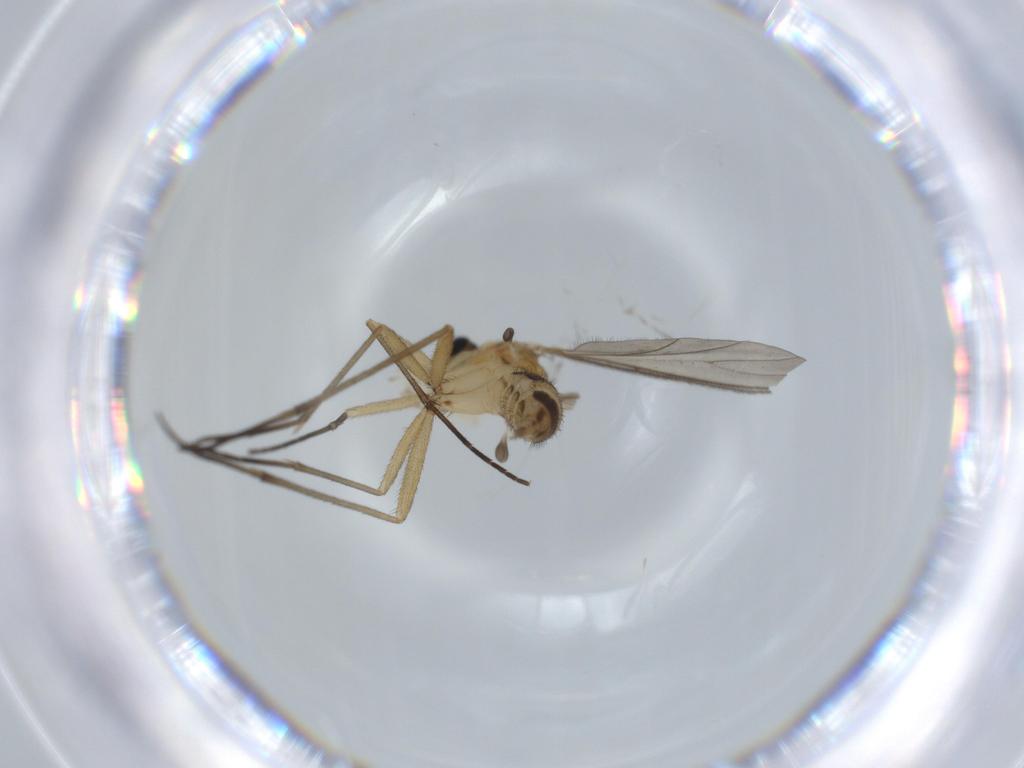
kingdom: Animalia
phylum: Arthropoda
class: Insecta
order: Diptera
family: Sciaridae
